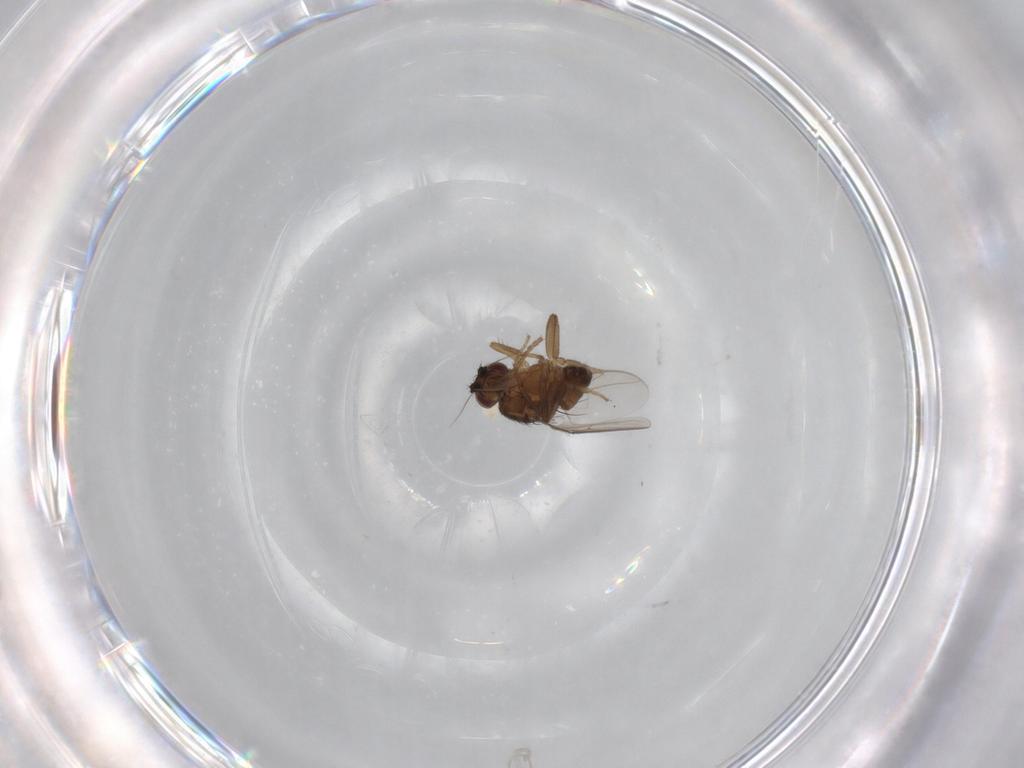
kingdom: Animalia
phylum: Arthropoda
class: Insecta
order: Diptera
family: Sphaeroceridae
